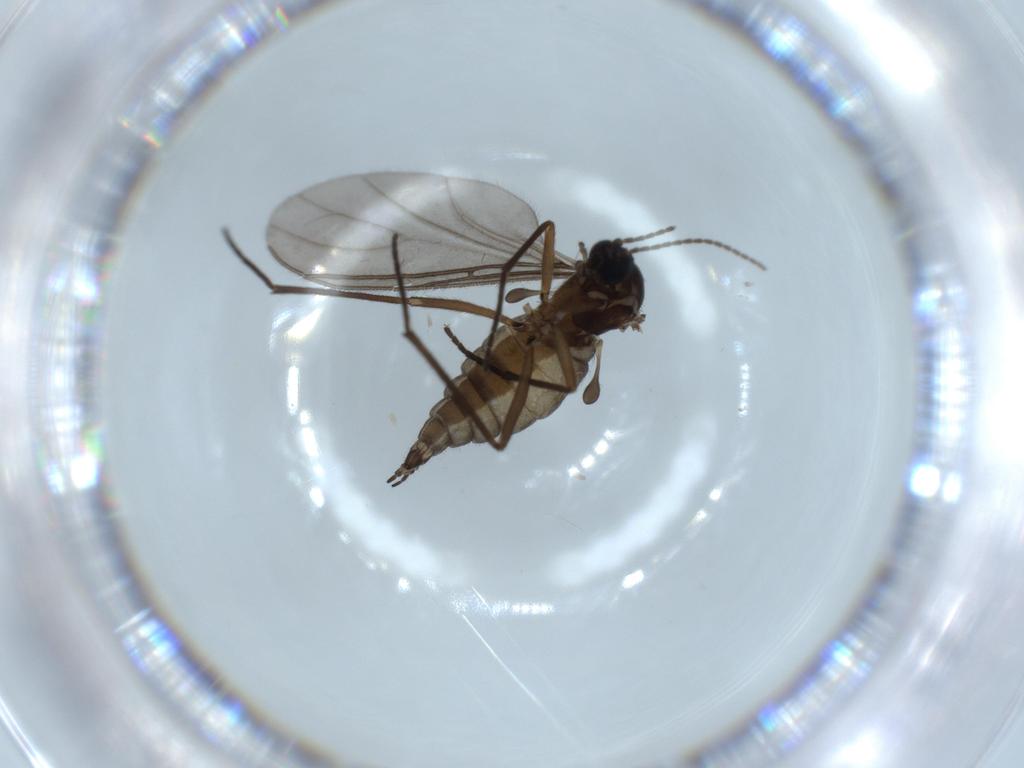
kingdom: Animalia
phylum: Arthropoda
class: Insecta
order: Diptera
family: Sciaridae
